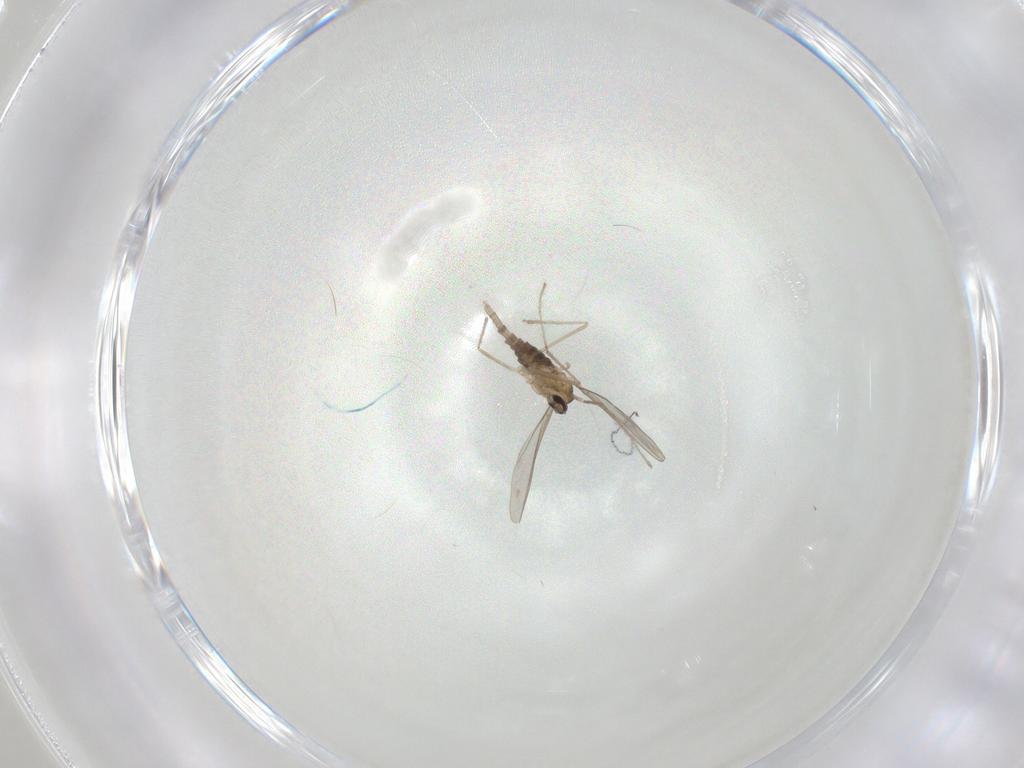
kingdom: Animalia
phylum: Arthropoda
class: Insecta
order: Diptera
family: Cecidomyiidae
